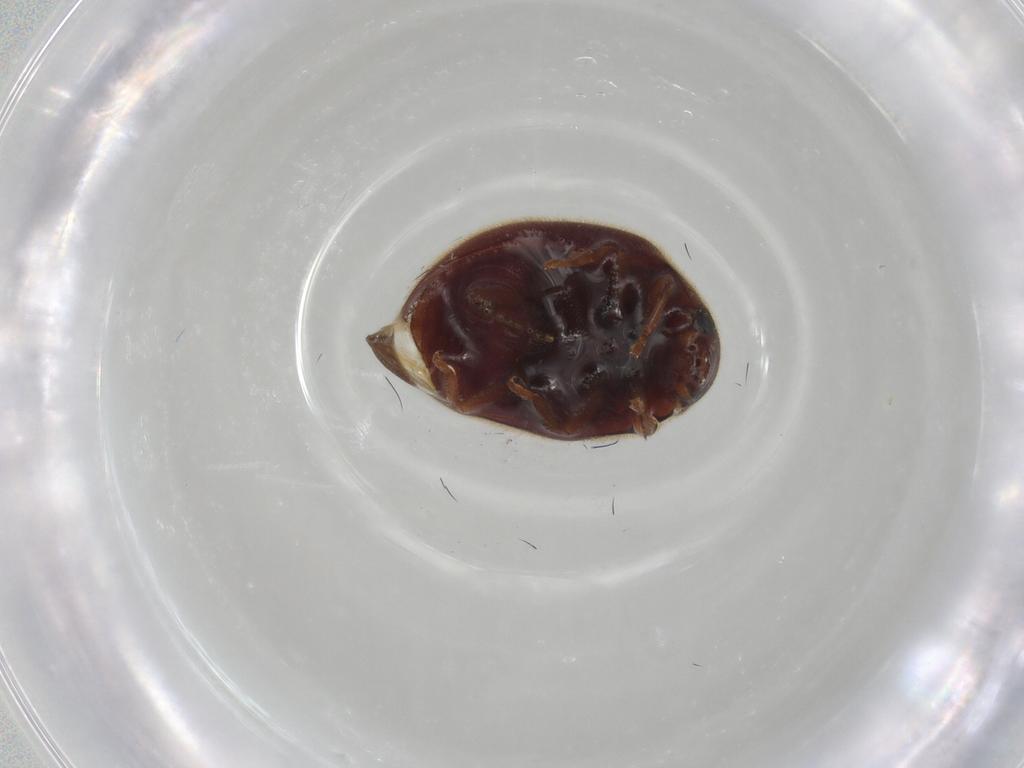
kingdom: Animalia
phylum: Arthropoda
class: Insecta
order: Coleoptera
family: Coccinellidae
